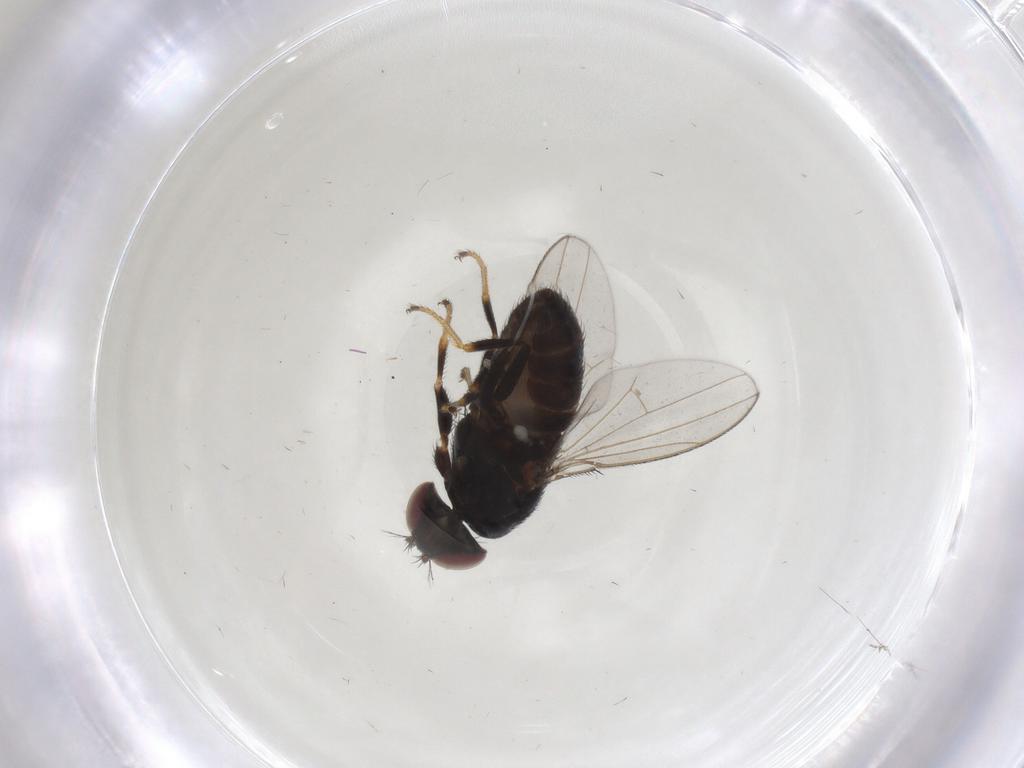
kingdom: Animalia
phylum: Arthropoda
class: Insecta
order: Diptera
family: Ephydridae
